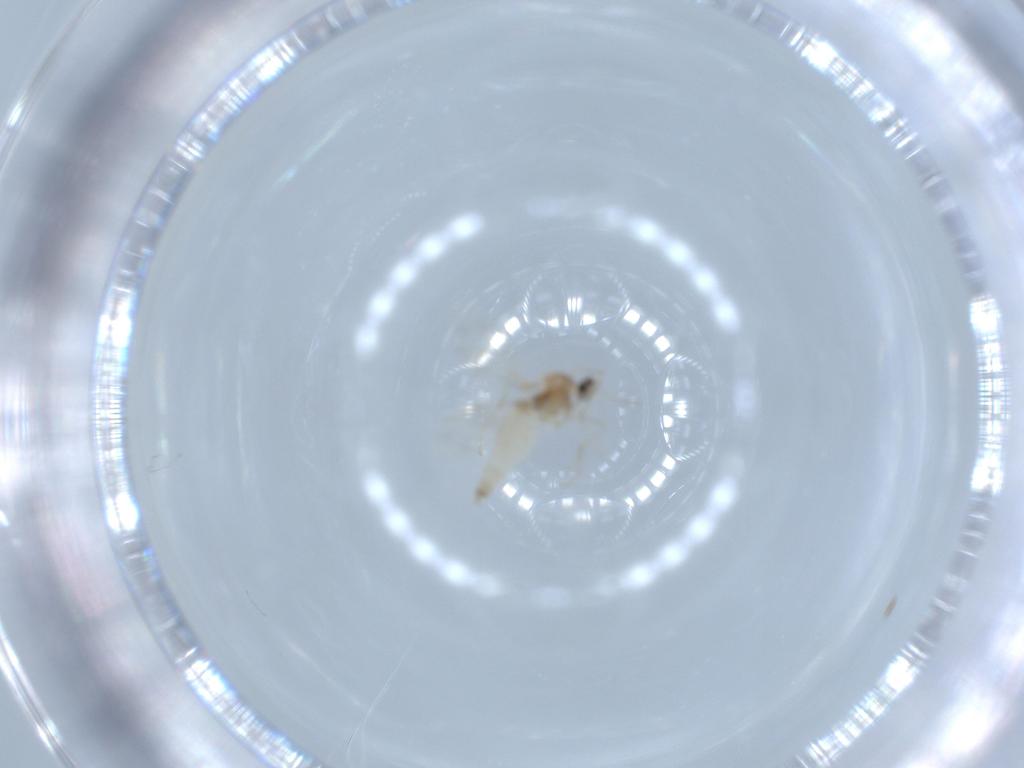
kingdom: Animalia
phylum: Arthropoda
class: Insecta
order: Diptera
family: Cecidomyiidae
